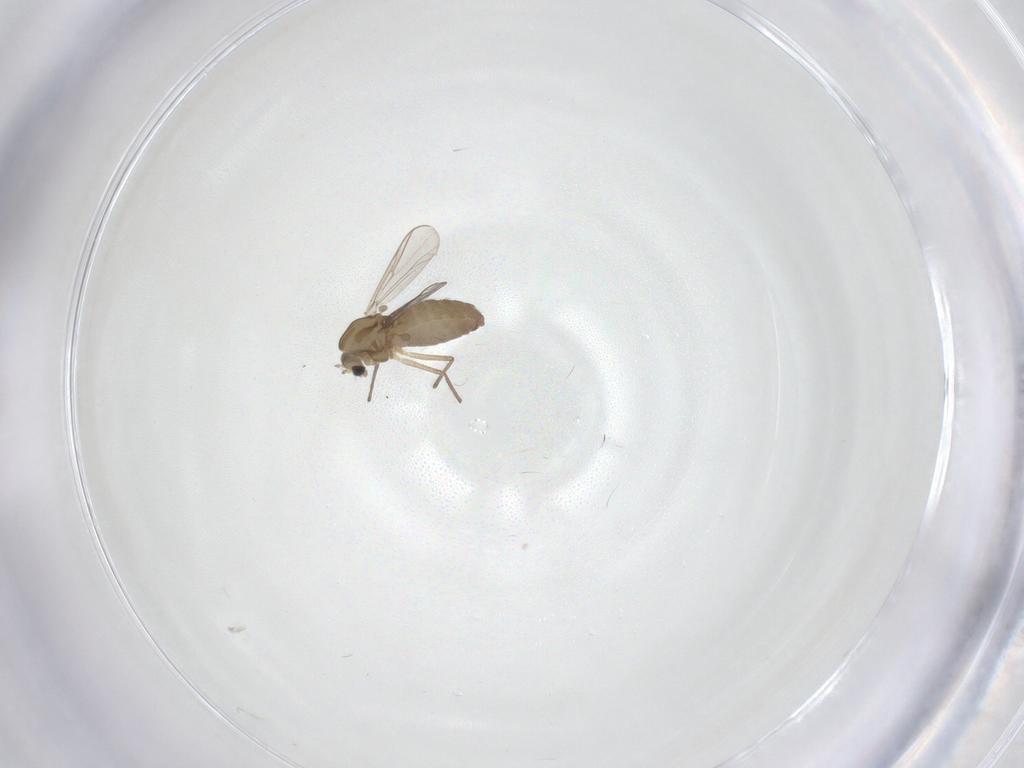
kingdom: Animalia
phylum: Arthropoda
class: Insecta
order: Diptera
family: Chironomidae
